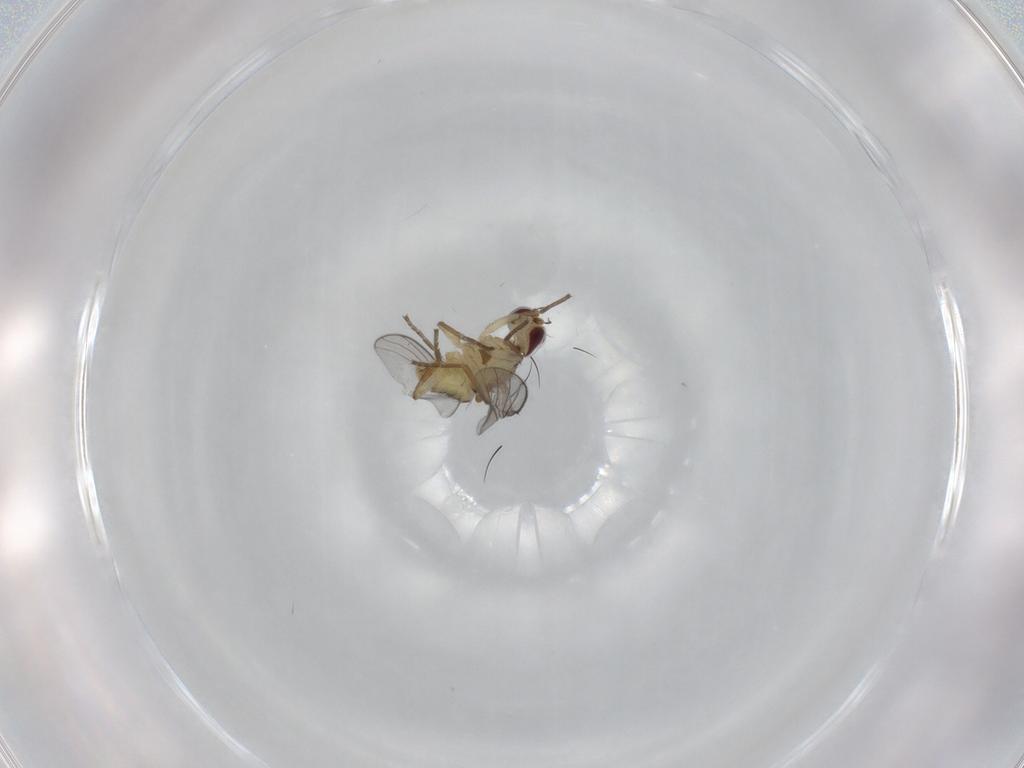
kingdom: Animalia
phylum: Arthropoda
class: Insecta
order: Diptera
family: Agromyzidae
